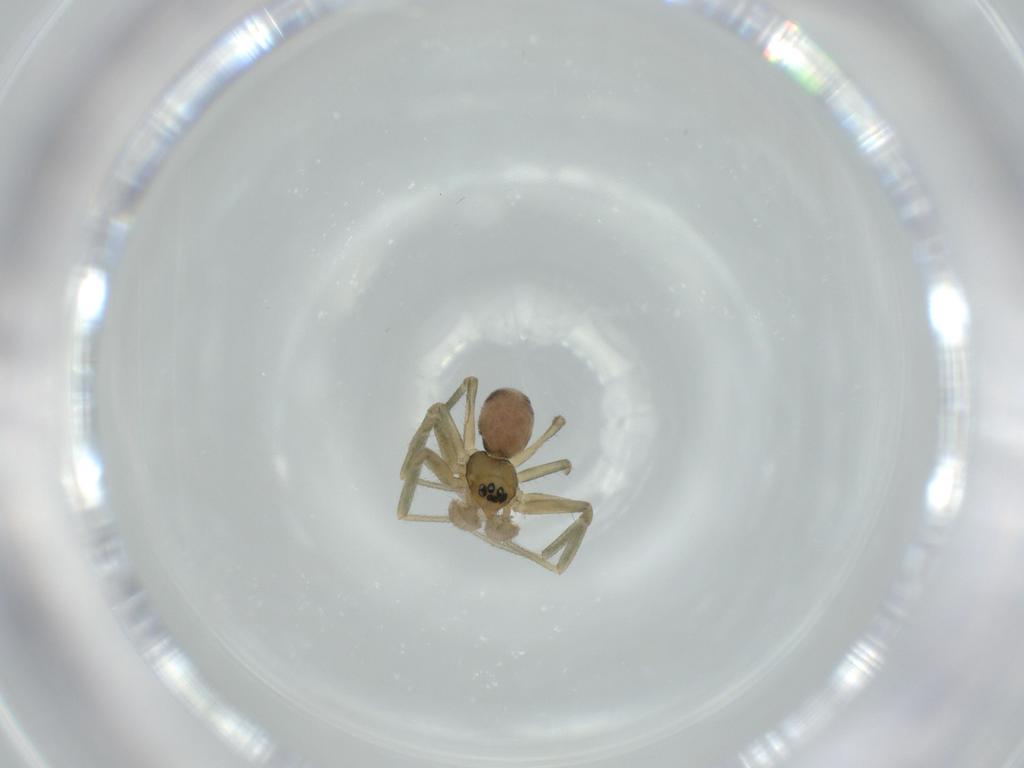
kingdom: Animalia
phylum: Arthropoda
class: Arachnida
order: Araneae
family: Linyphiidae
